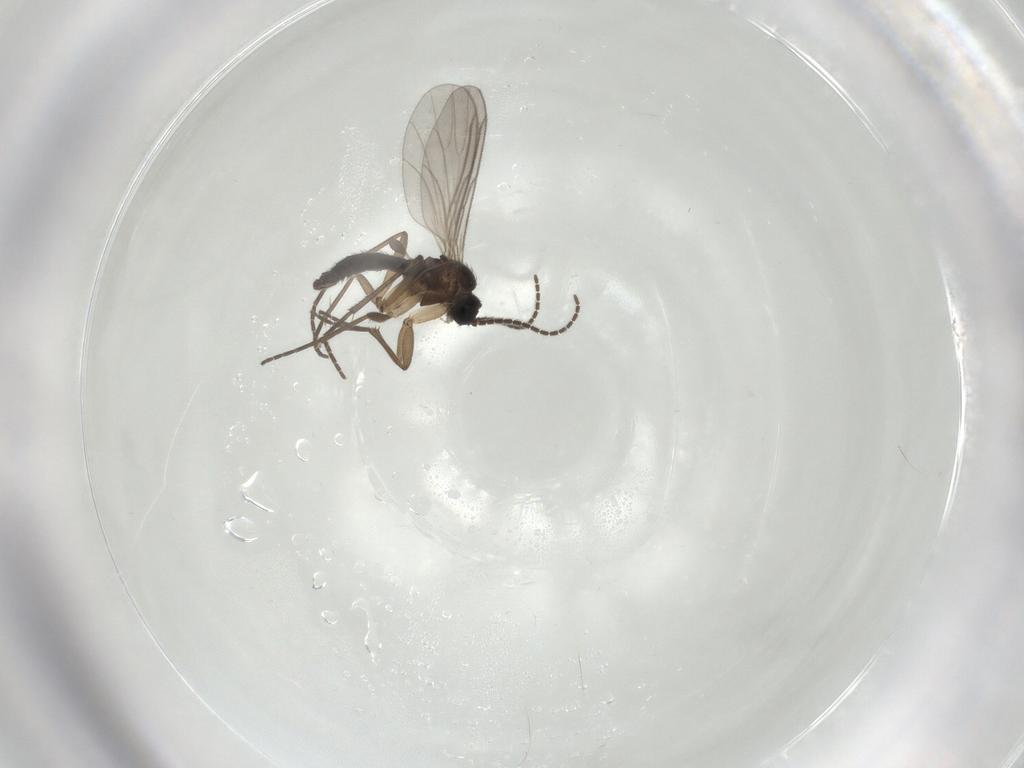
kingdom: Animalia
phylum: Arthropoda
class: Insecta
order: Diptera
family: Sciaridae
